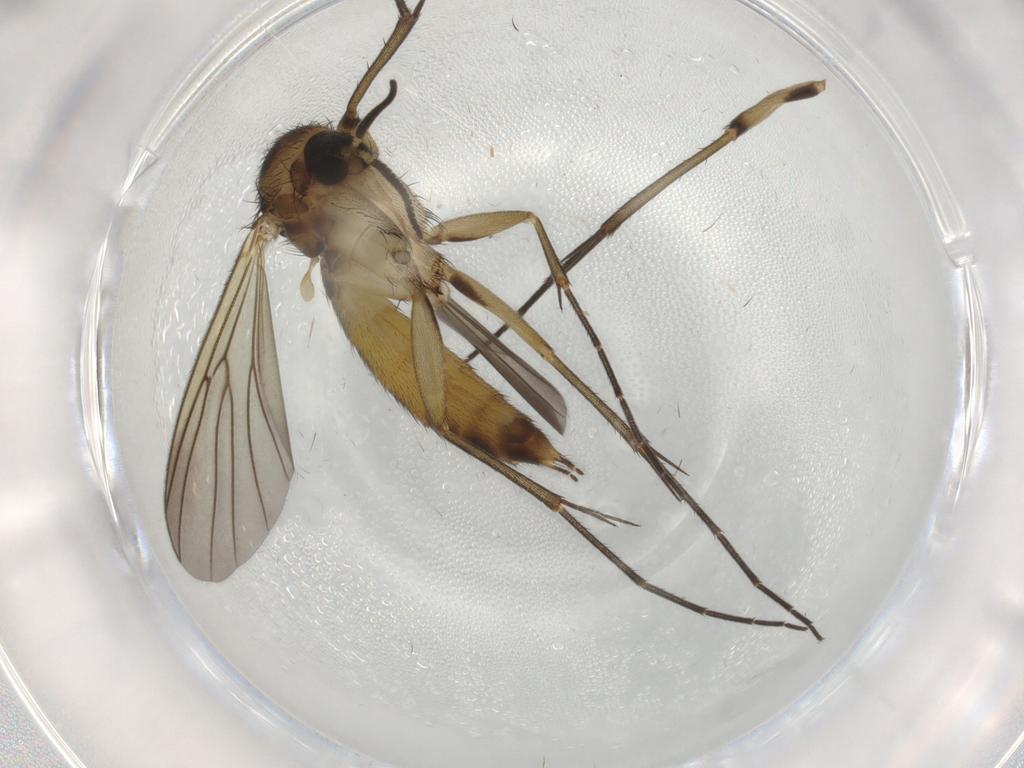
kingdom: Animalia
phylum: Arthropoda
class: Insecta
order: Diptera
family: Mycetophilidae
